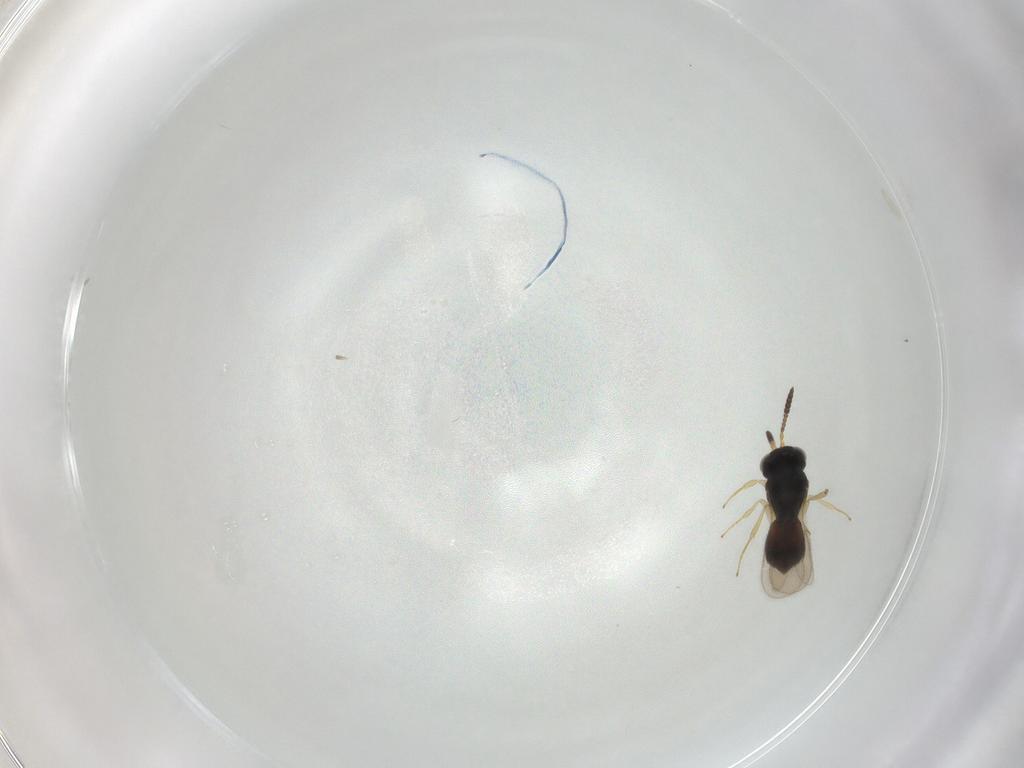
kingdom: Animalia
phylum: Arthropoda
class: Insecta
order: Hymenoptera
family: Scelionidae
